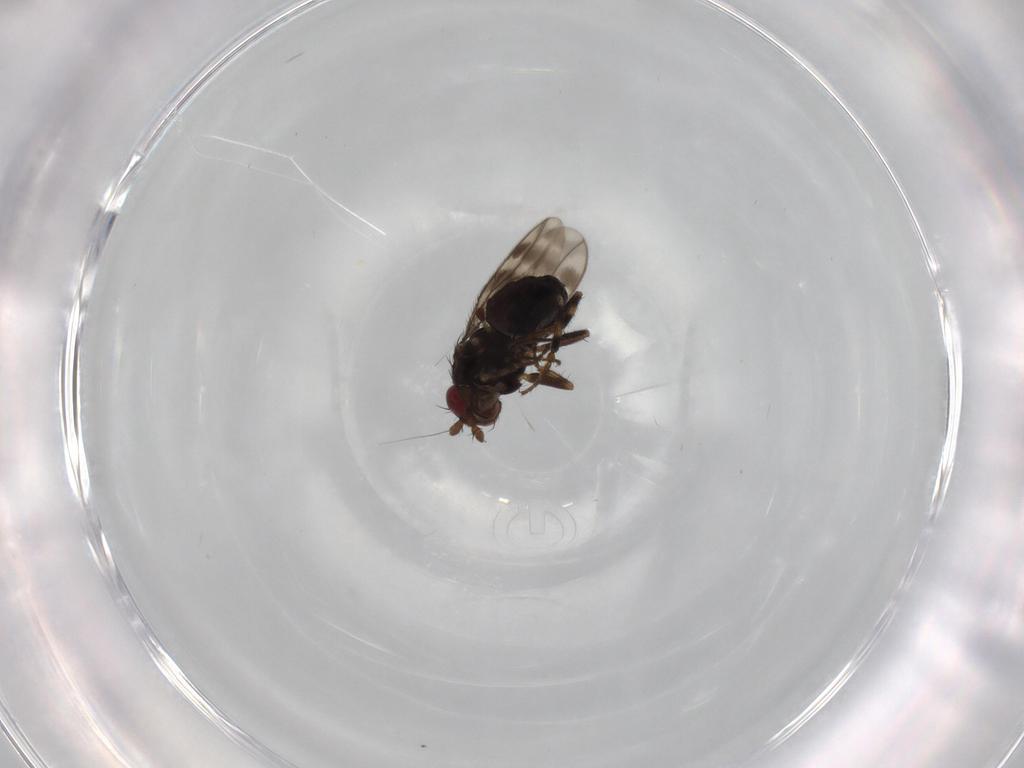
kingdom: Animalia
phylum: Arthropoda
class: Insecta
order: Diptera
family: Sphaeroceridae
